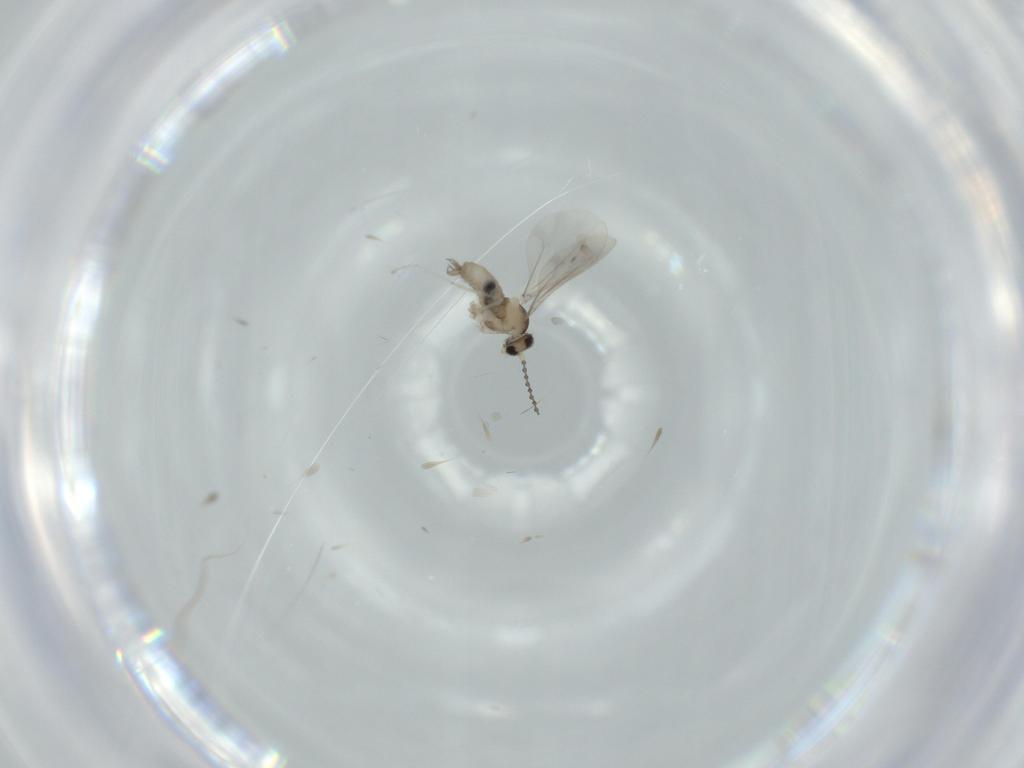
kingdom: Animalia
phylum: Arthropoda
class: Insecta
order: Diptera
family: Cecidomyiidae
